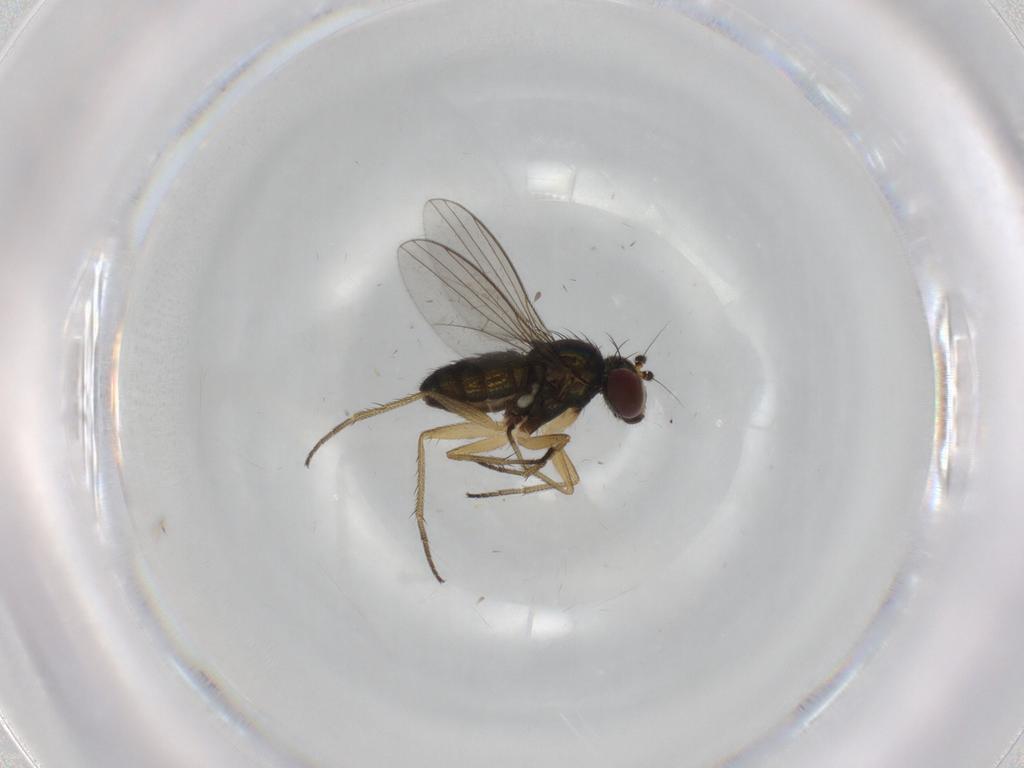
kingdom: Animalia
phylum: Arthropoda
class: Insecta
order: Diptera
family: Dolichopodidae
